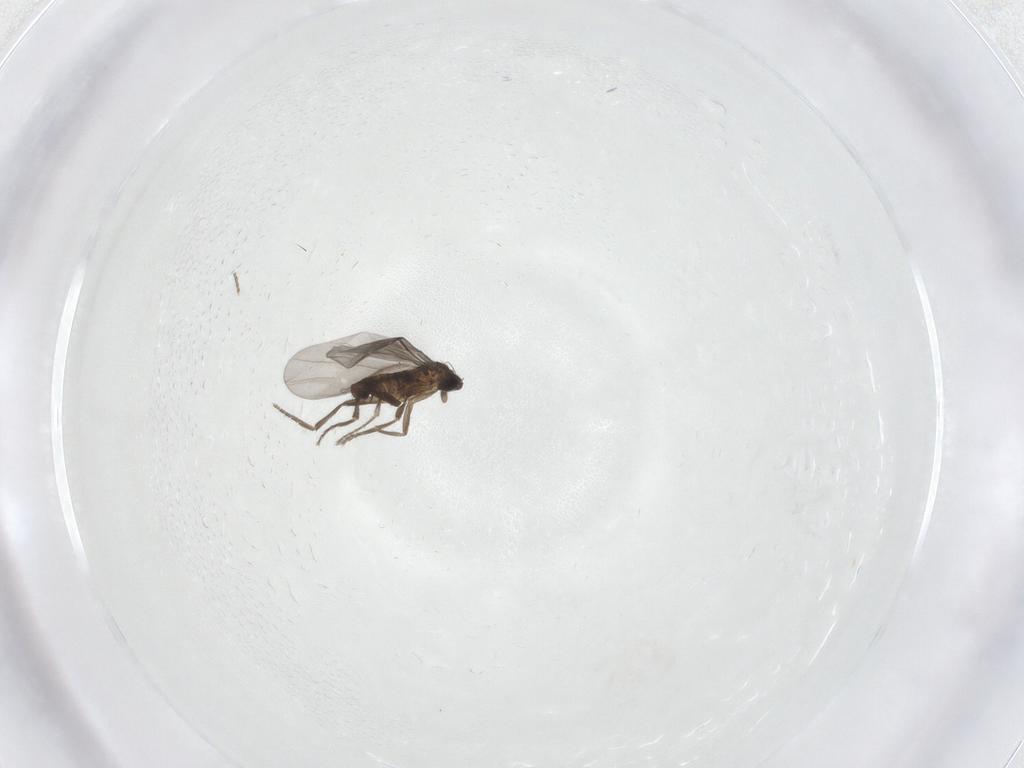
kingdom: Animalia
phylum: Arthropoda
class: Insecta
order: Diptera
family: Phoridae
